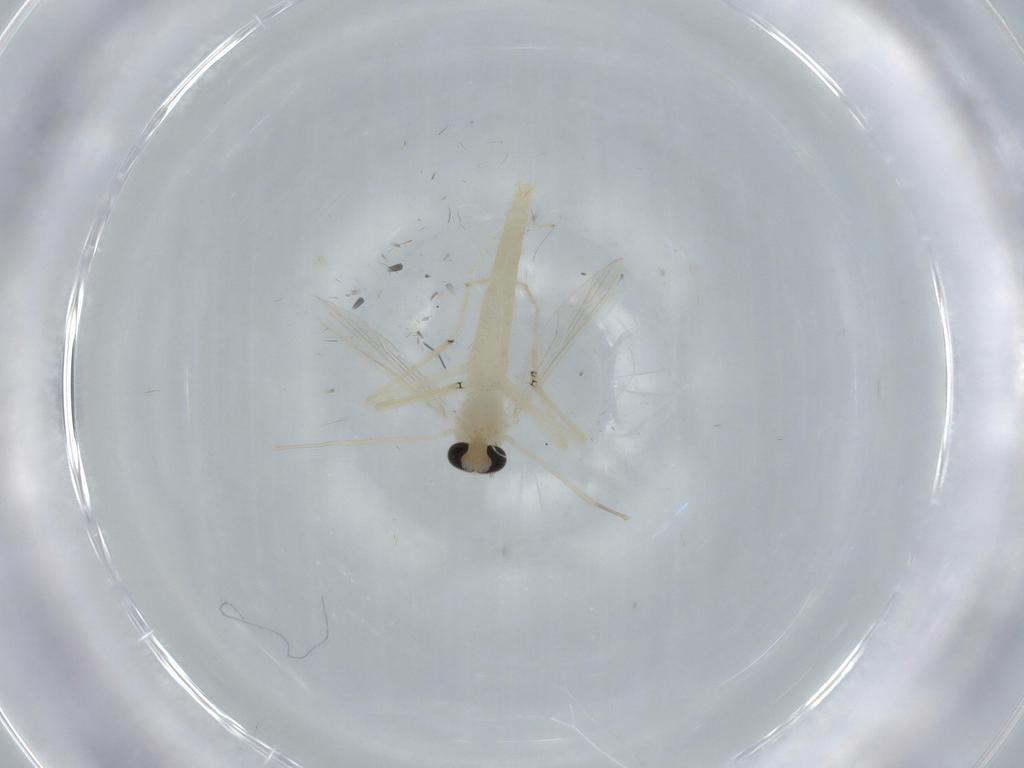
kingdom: Animalia
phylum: Arthropoda
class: Insecta
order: Diptera
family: Chironomidae
